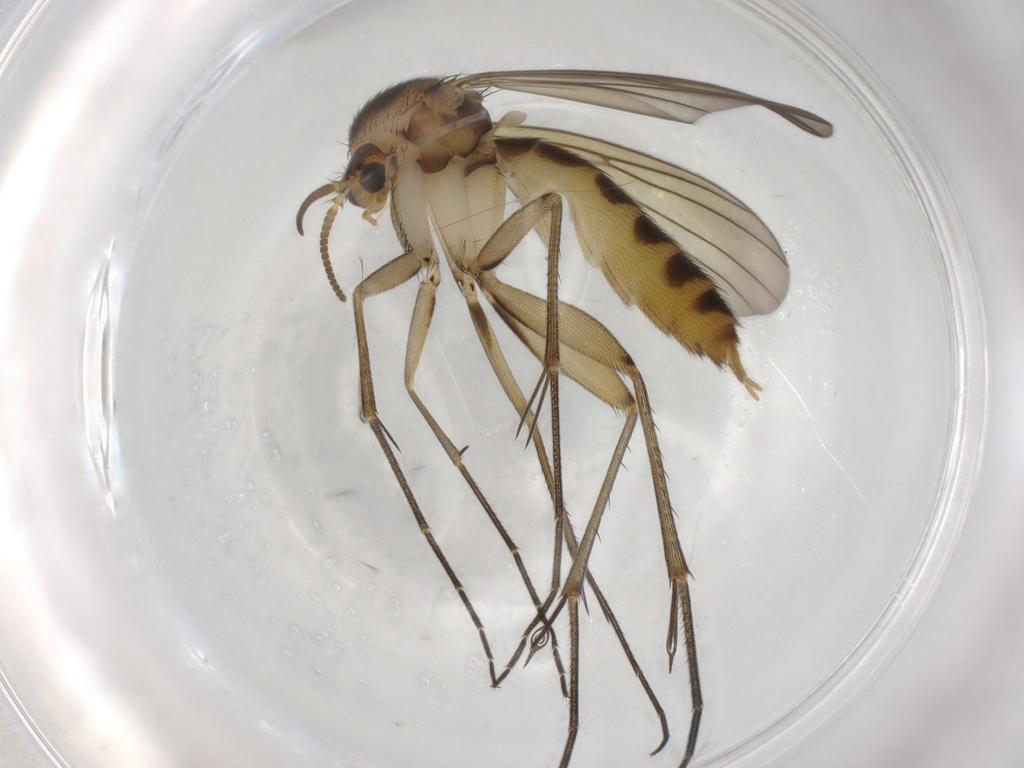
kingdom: Animalia
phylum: Arthropoda
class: Insecta
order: Diptera
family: Mycetophilidae
